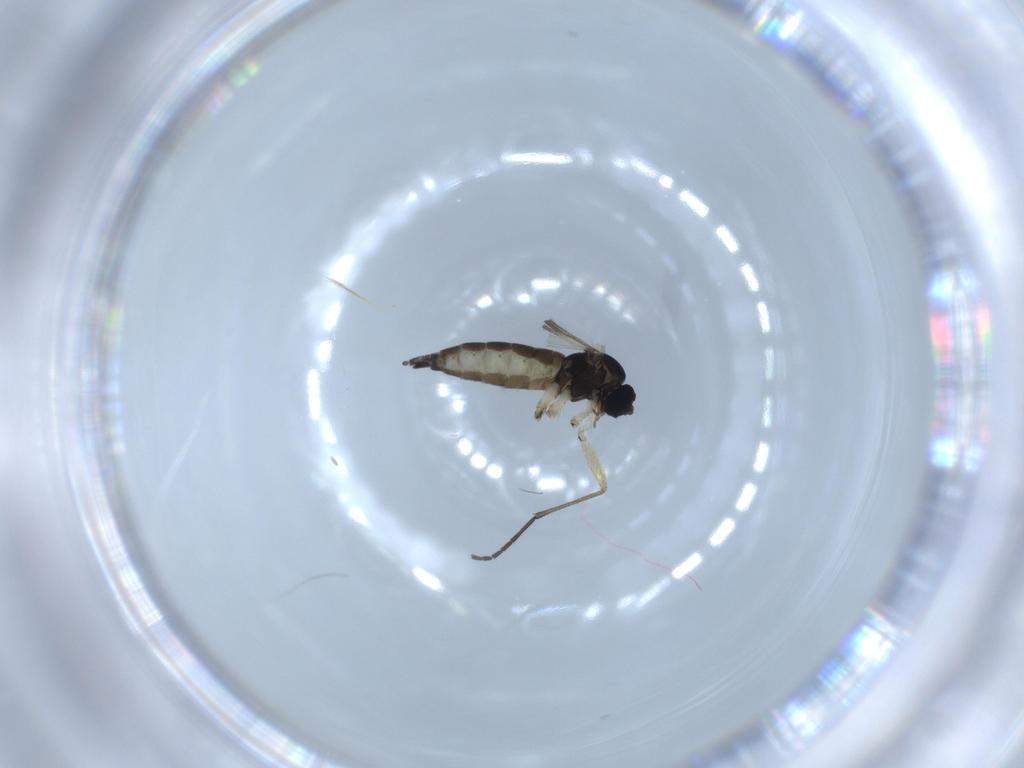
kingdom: Animalia
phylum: Arthropoda
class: Insecta
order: Diptera
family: Sciaridae
